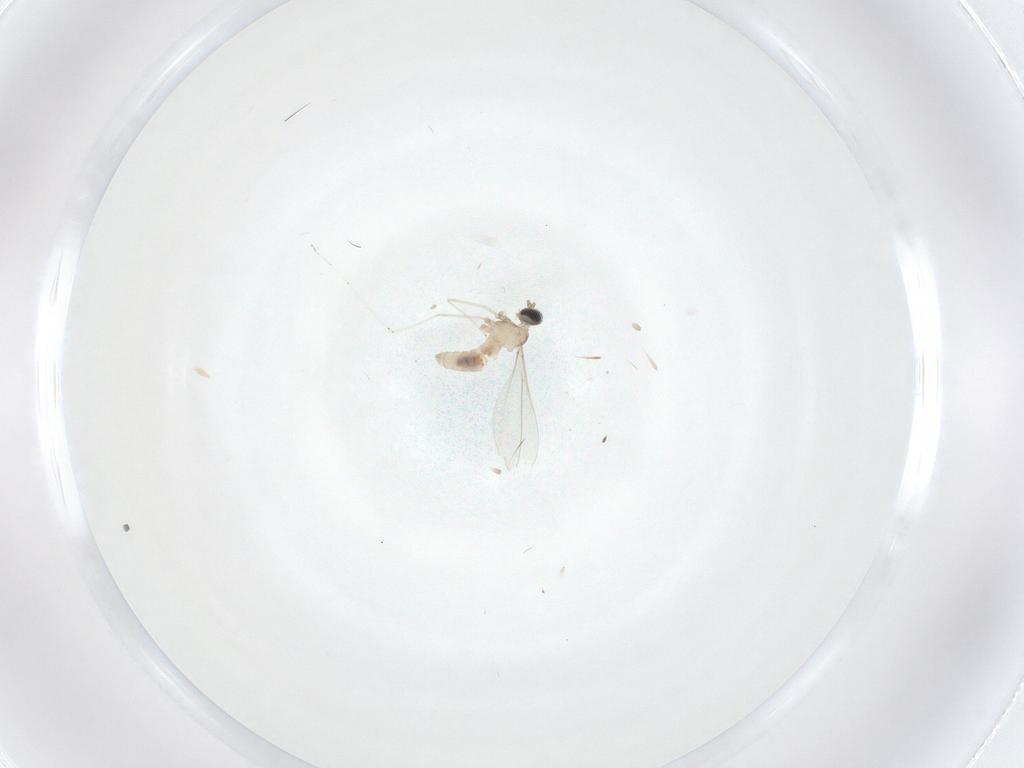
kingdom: Animalia
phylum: Arthropoda
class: Insecta
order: Diptera
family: Cecidomyiidae
